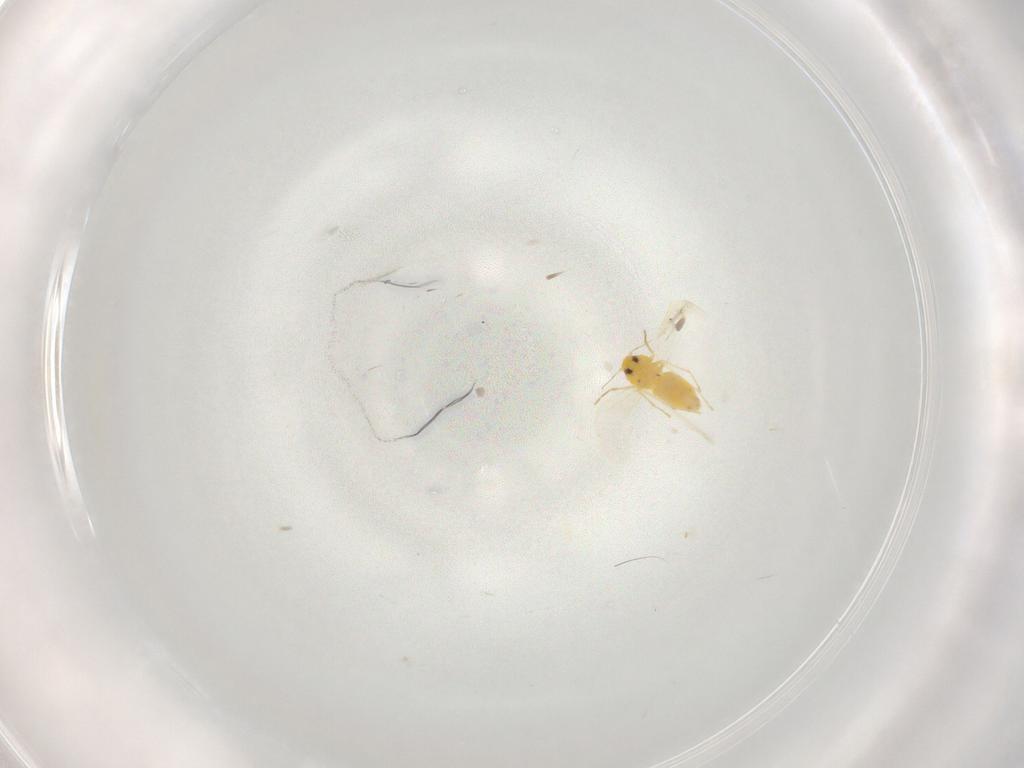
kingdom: Animalia
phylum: Arthropoda
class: Insecta
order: Hemiptera
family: Aleyrodidae
